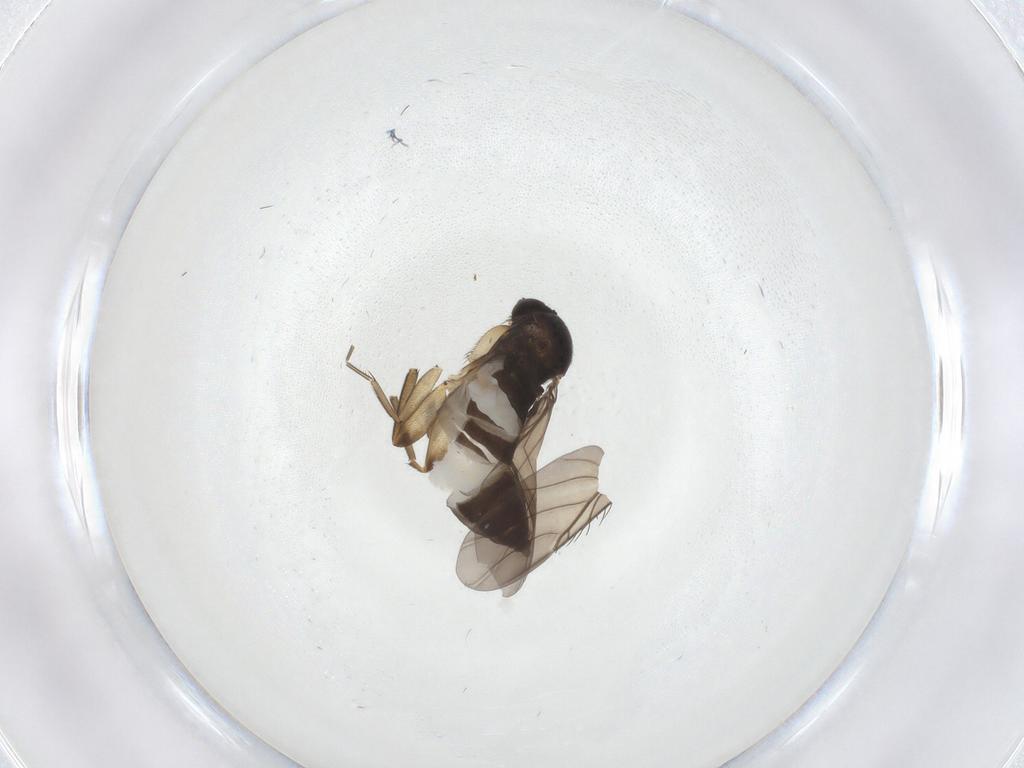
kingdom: Animalia
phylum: Arthropoda
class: Insecta
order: Diptera
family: Phoridae
